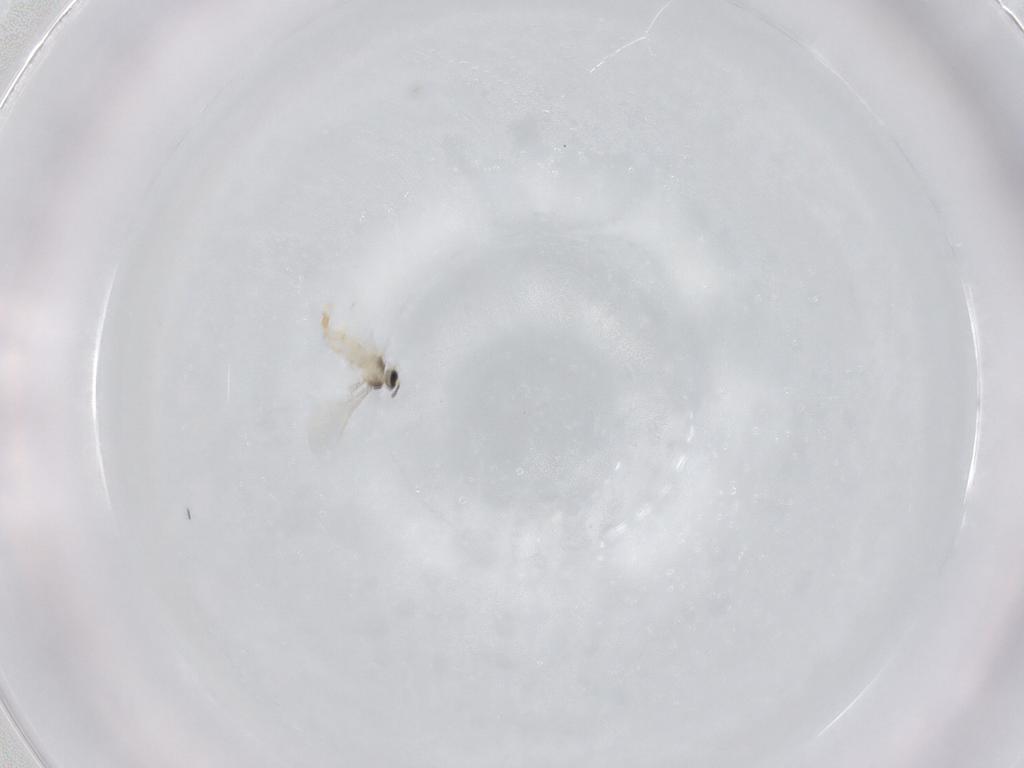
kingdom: Animalia
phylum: Arthropoda
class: Insecta
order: Diptera
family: Cecidomyiidae
